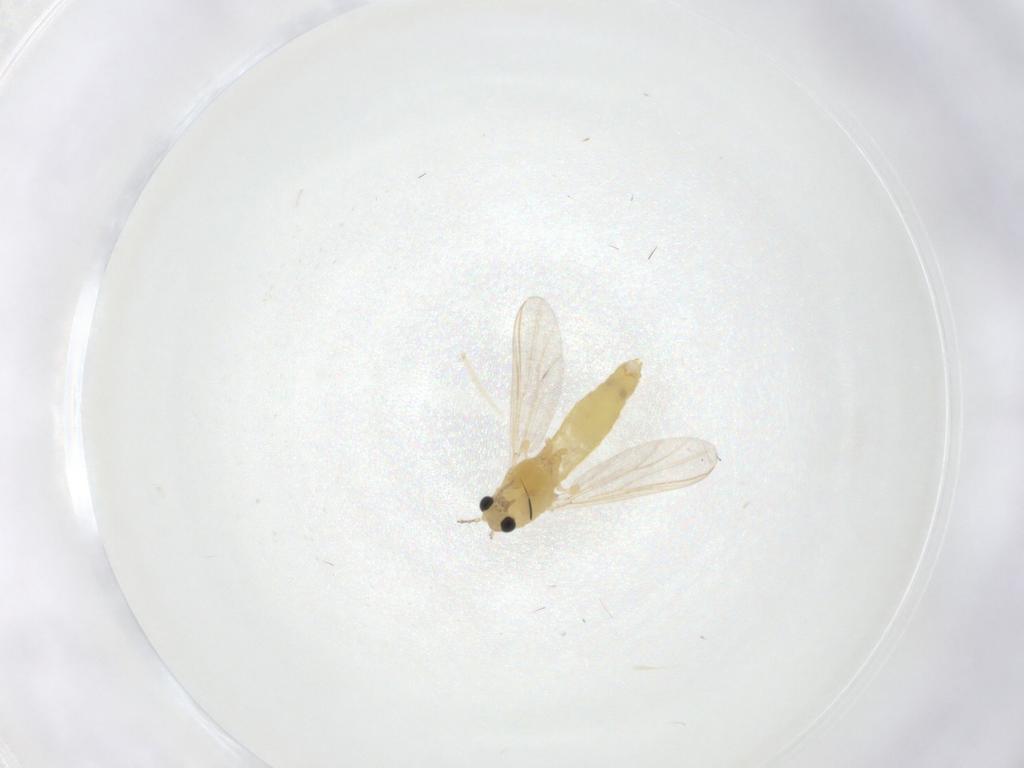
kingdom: Animalia
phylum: Arthropoda
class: Insecta
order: Diptera
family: Chironomidae
